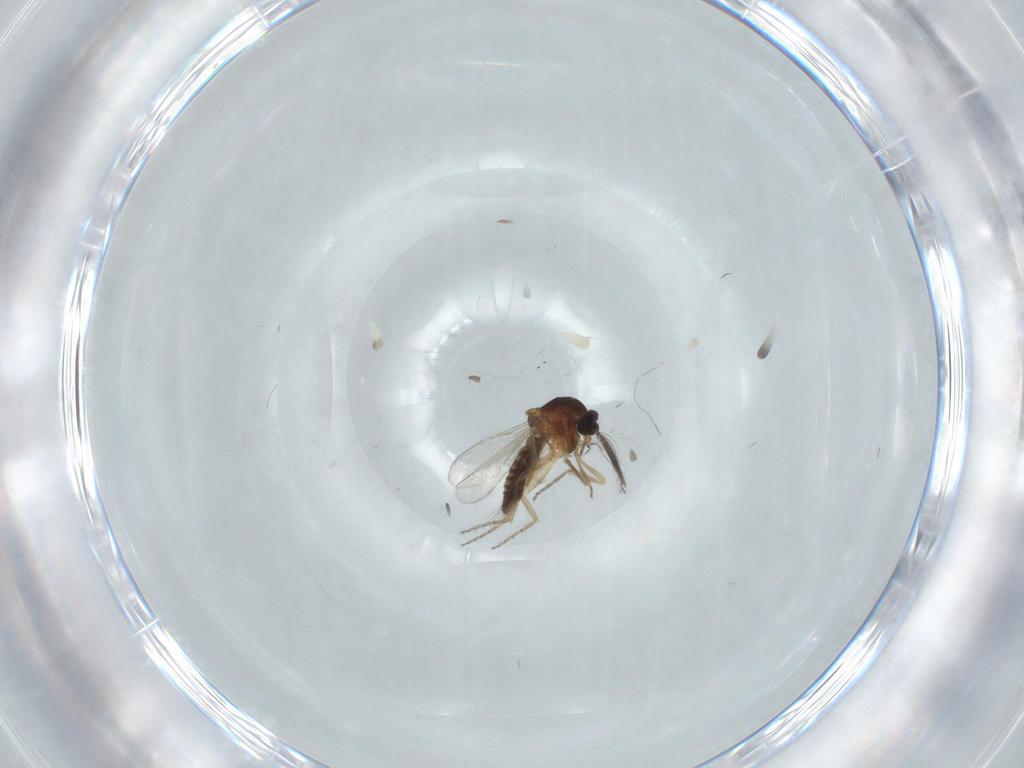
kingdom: Animalia
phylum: Arthropoda
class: Insecta
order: Diptera
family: Ceratopogonidae
